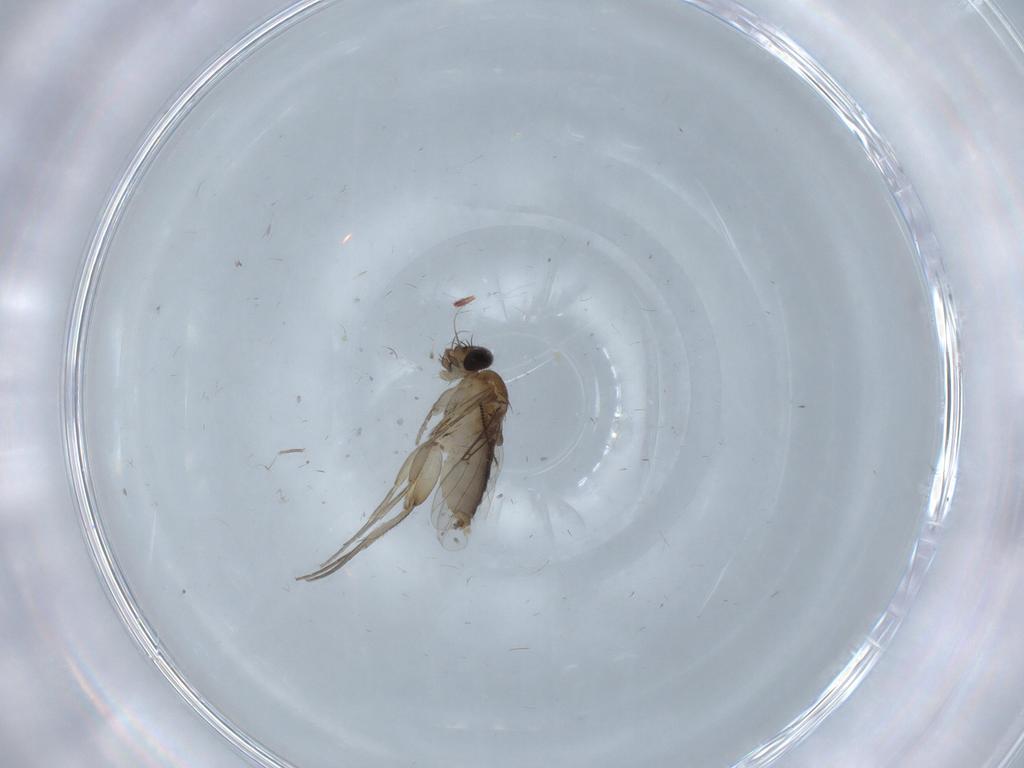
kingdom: Animalia
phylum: Arthropoda
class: Insecta
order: Diptera
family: Phoridae
